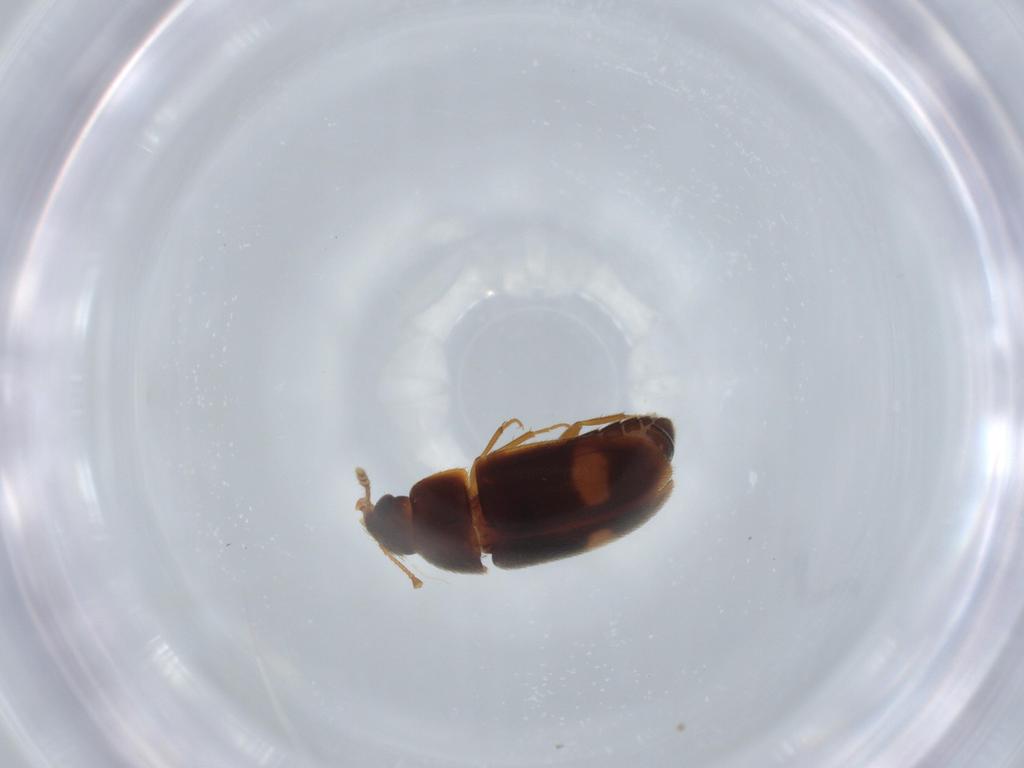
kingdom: Animalia
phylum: Arthropoda
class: Insecta
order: Coleoptera
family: Mycetophagidae
